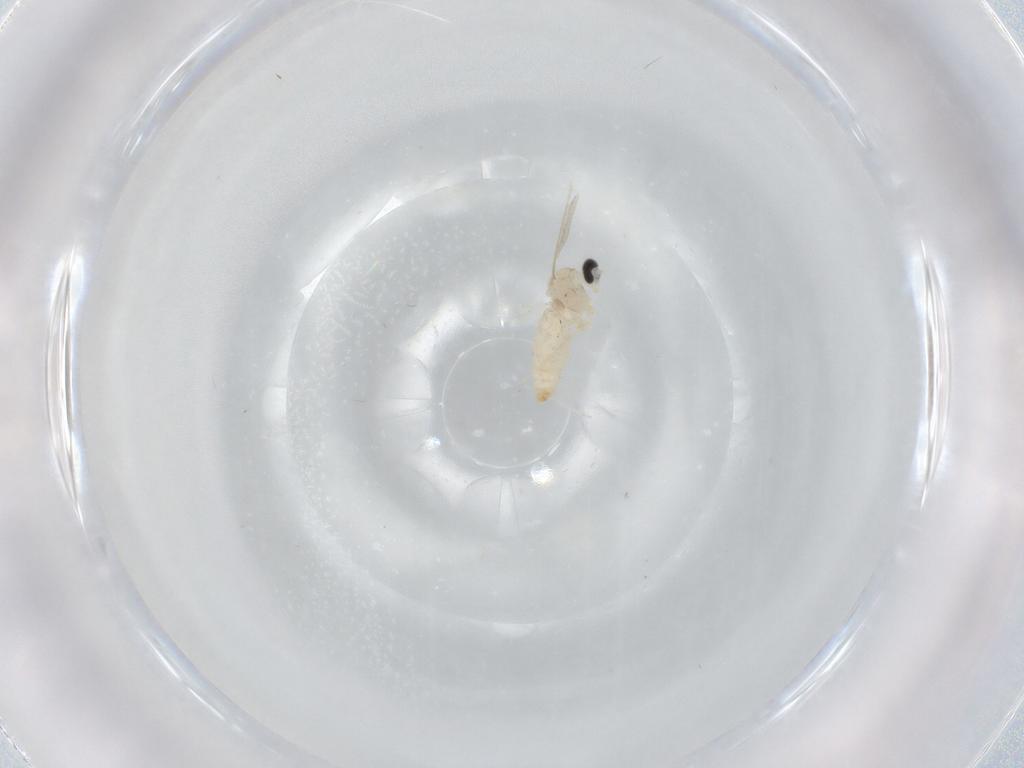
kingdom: Animalia
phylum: Arthropoda
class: Insecta
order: Diptera
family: Cecidomyiidae
